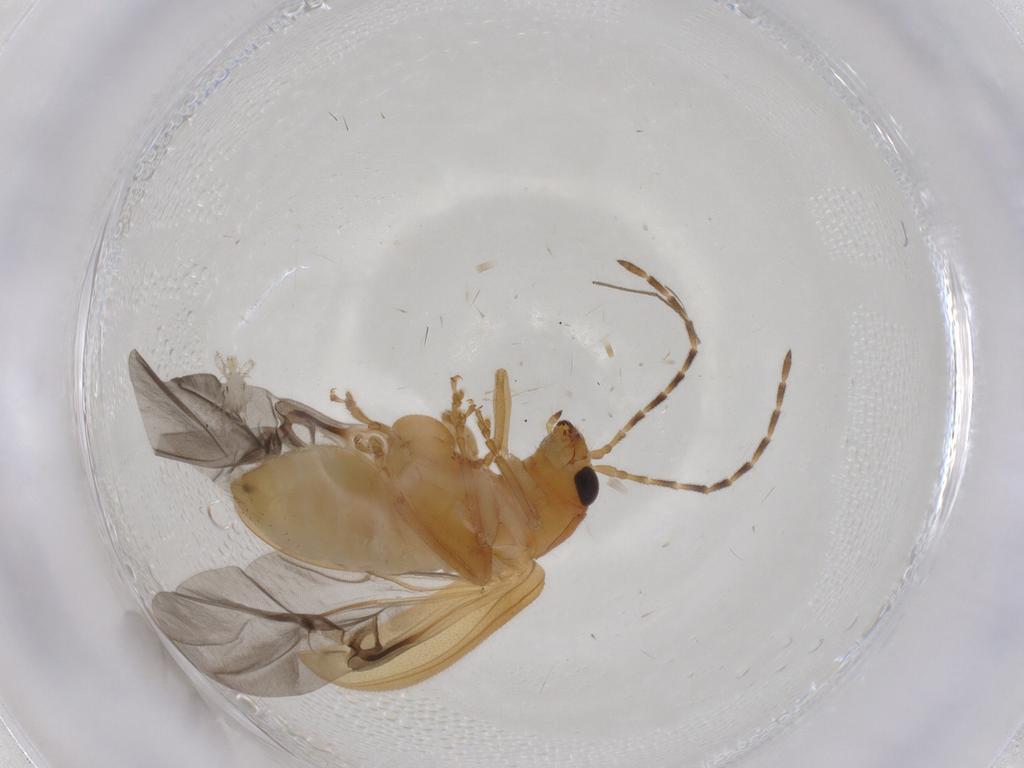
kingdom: Animalia
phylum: Arthropoda
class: Insecta
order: Coleoptera
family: Chrysomelidae
